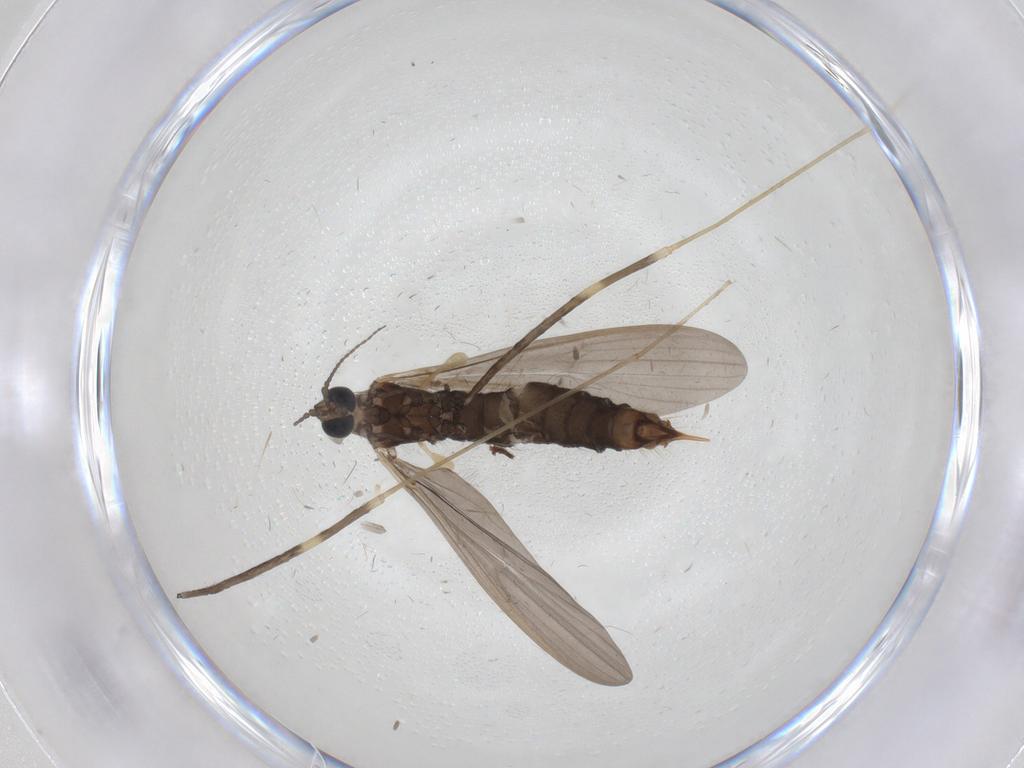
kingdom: Animalia
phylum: Arthropoda
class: Insecta
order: Diptera
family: Limoniidae
